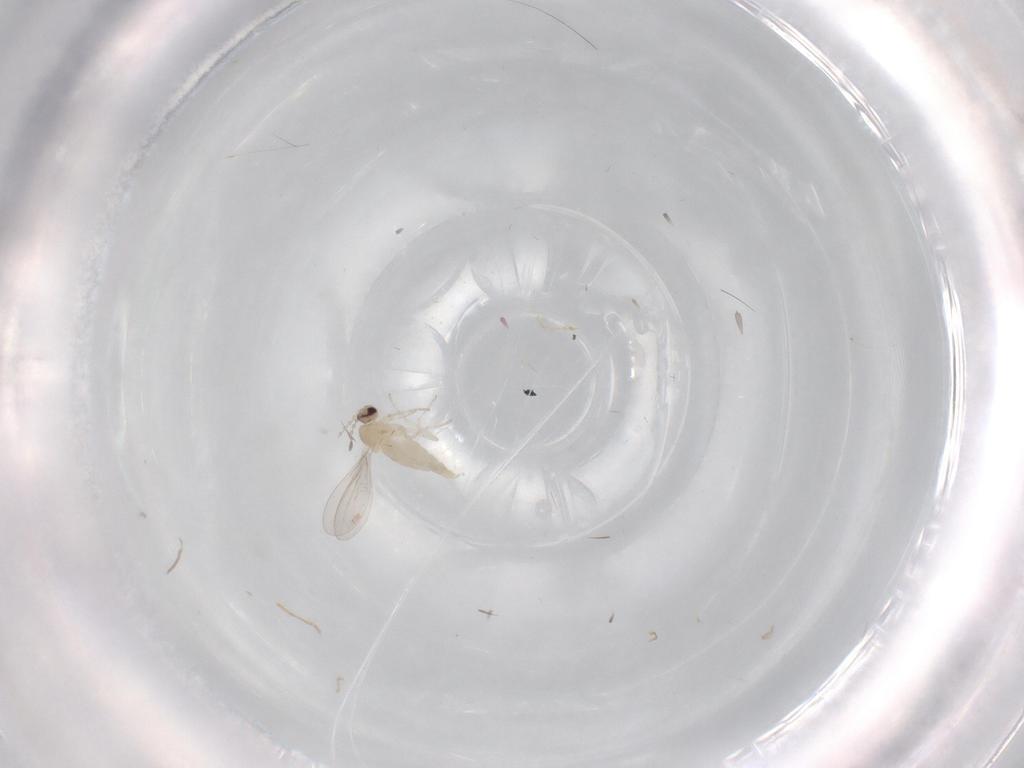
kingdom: Animalia
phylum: Arthropoda
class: Insecta
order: Diptera
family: Cecidomyiidae
